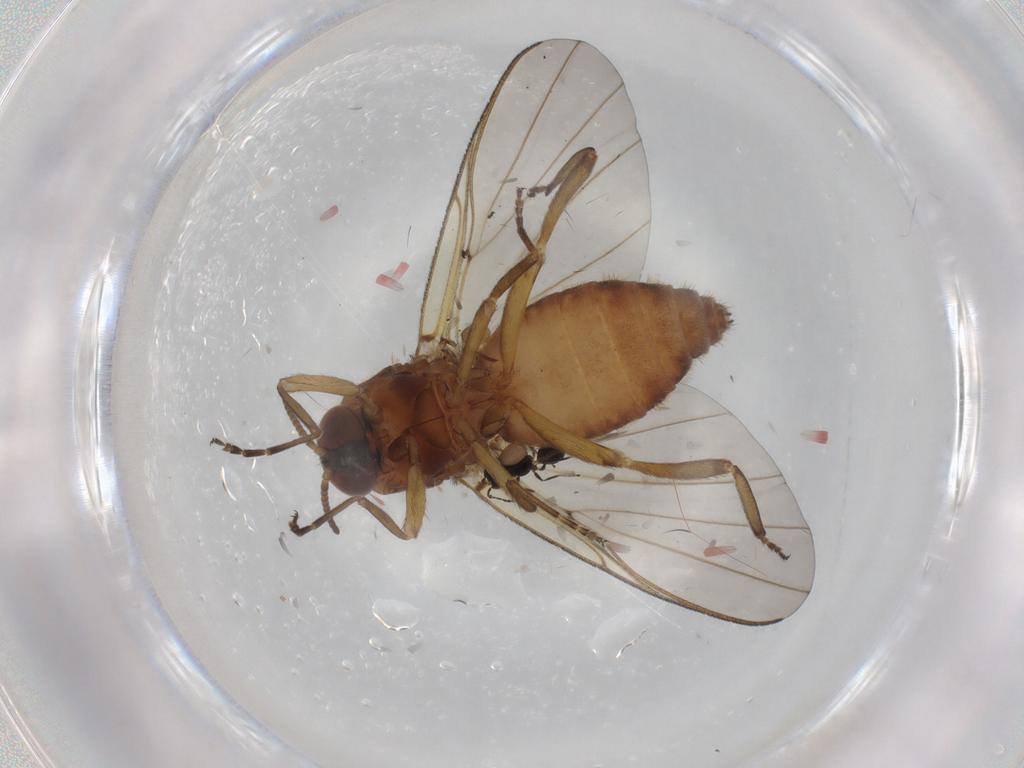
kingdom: Animalia
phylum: Arthropoda
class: Insecta
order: Diptera
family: Simuliidae
